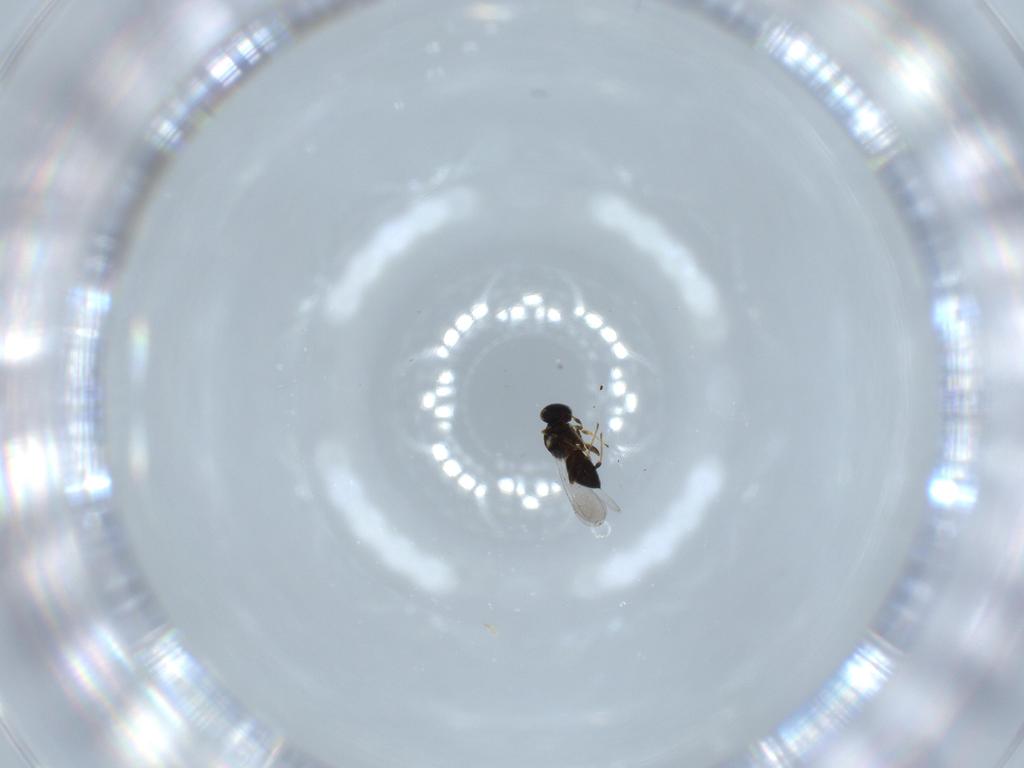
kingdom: Animalia
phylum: Arthropoda
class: Insecta
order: Hymenoptera
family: Platygastridae
